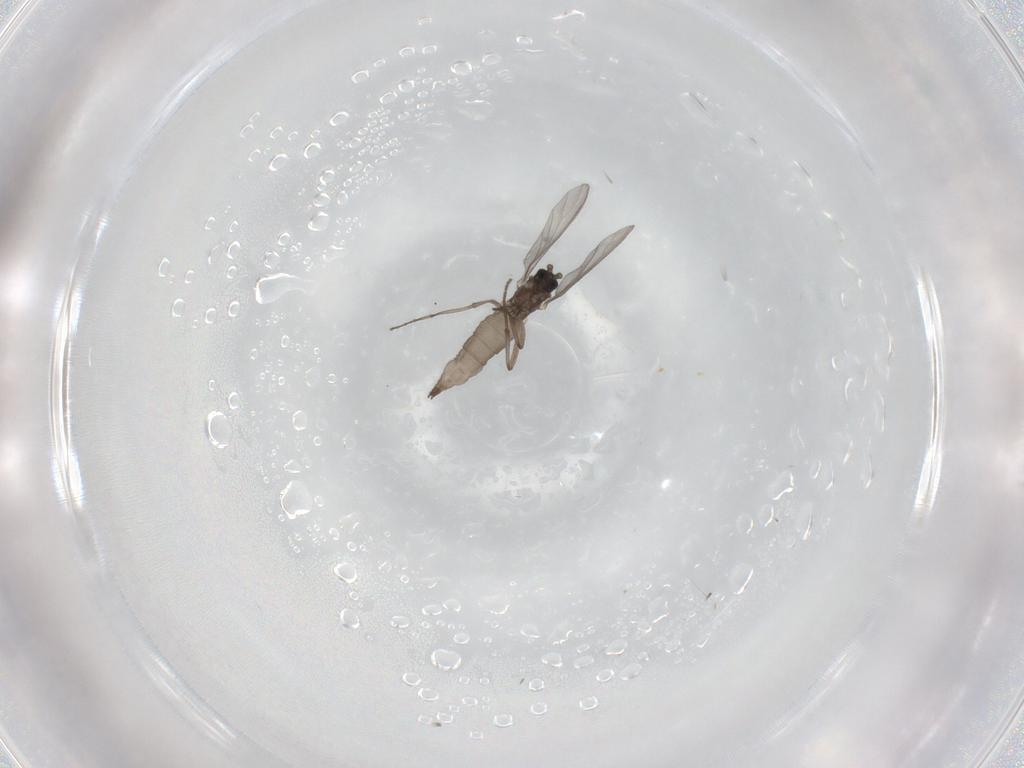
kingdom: Animalia
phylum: Arthropoda
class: Insecta
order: Diptera
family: Sciaridae
